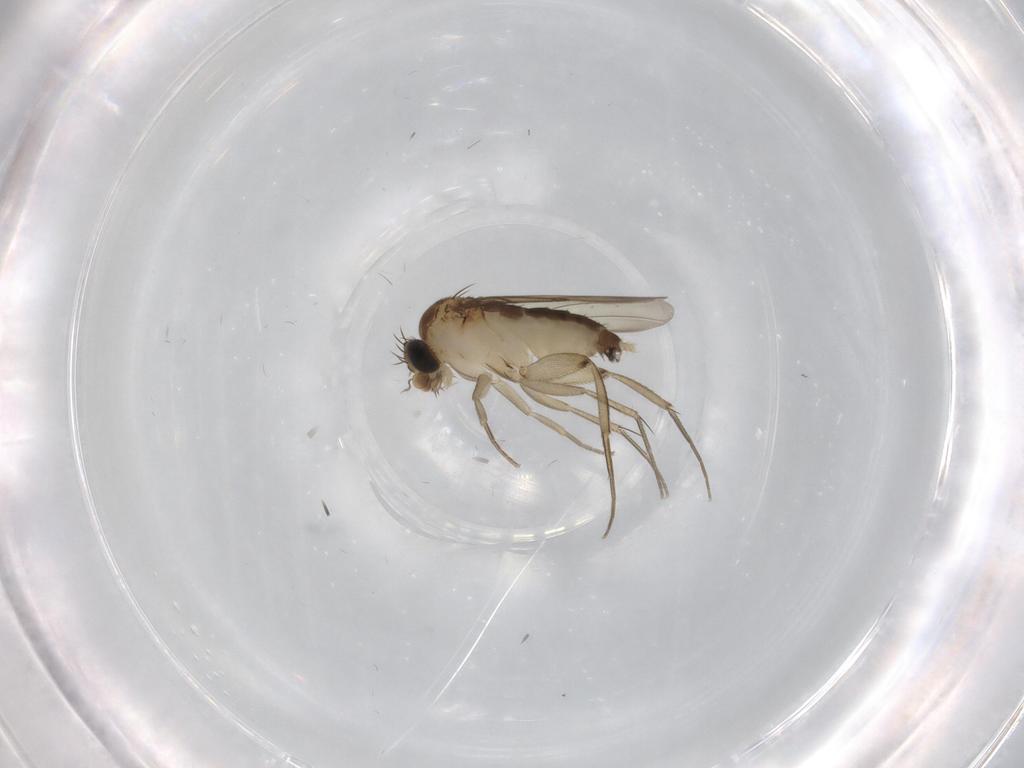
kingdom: Animalia
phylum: Arthropoda
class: Insecta
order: Diptera
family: Phoridae
